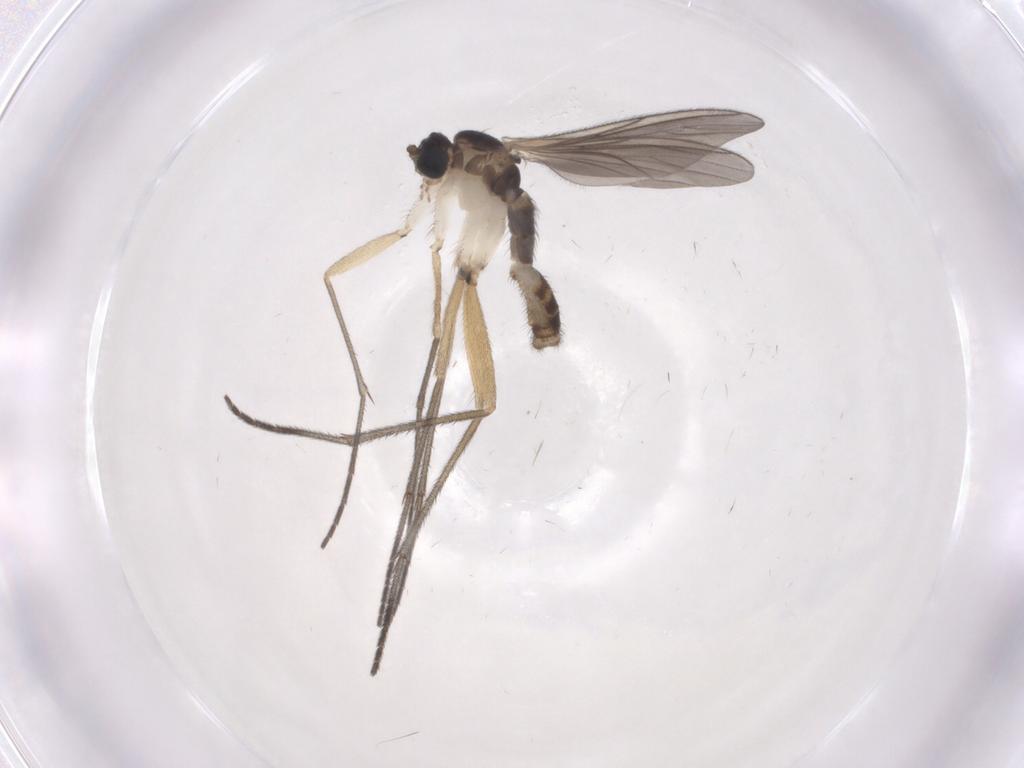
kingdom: Animalia
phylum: Arthropoda
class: Insecta
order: Diptera
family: Sciaridae
